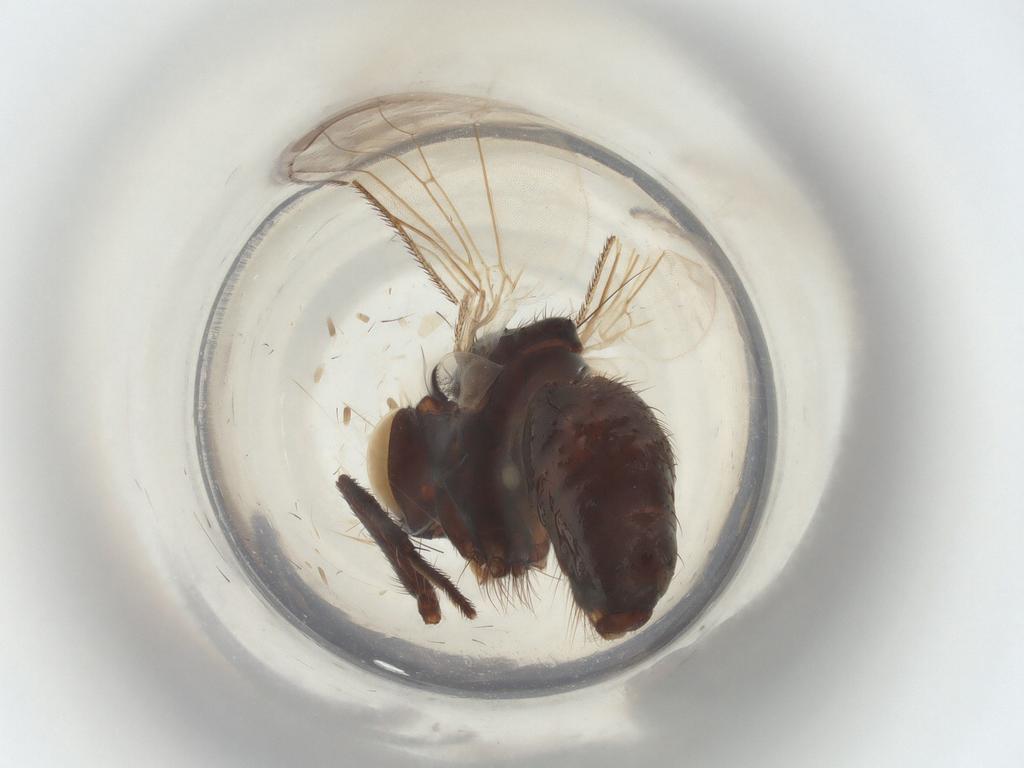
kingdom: Animalia
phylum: Arthropoda
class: Insecta
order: Diptera
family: Muscidae
